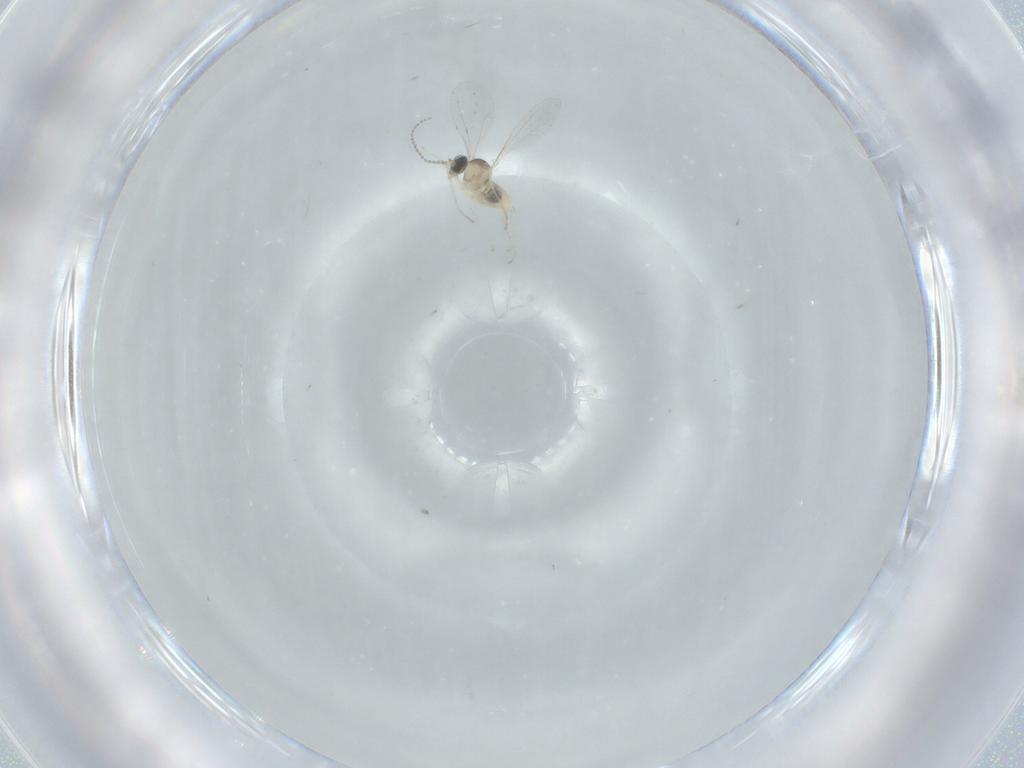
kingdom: Animalia
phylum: Arthropoda
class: Insecta
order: Diptera
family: Cecidomyiidae
